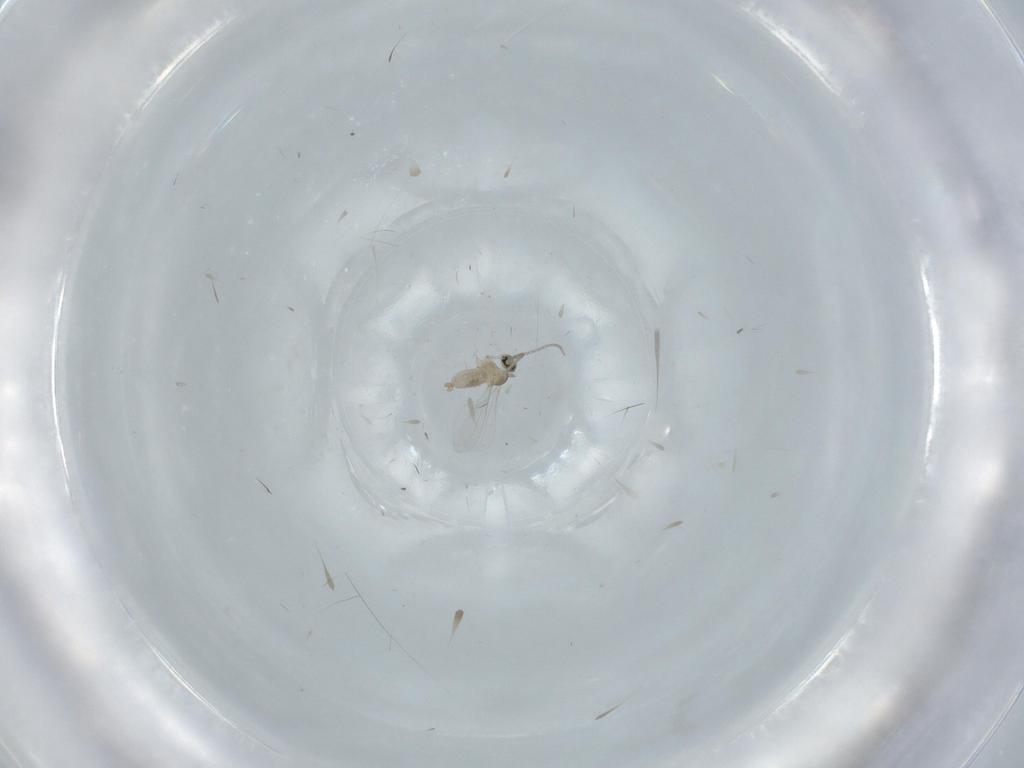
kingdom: Animalia
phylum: Arthropoda
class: Insecta
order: Diptera
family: Cecidomyiidae
